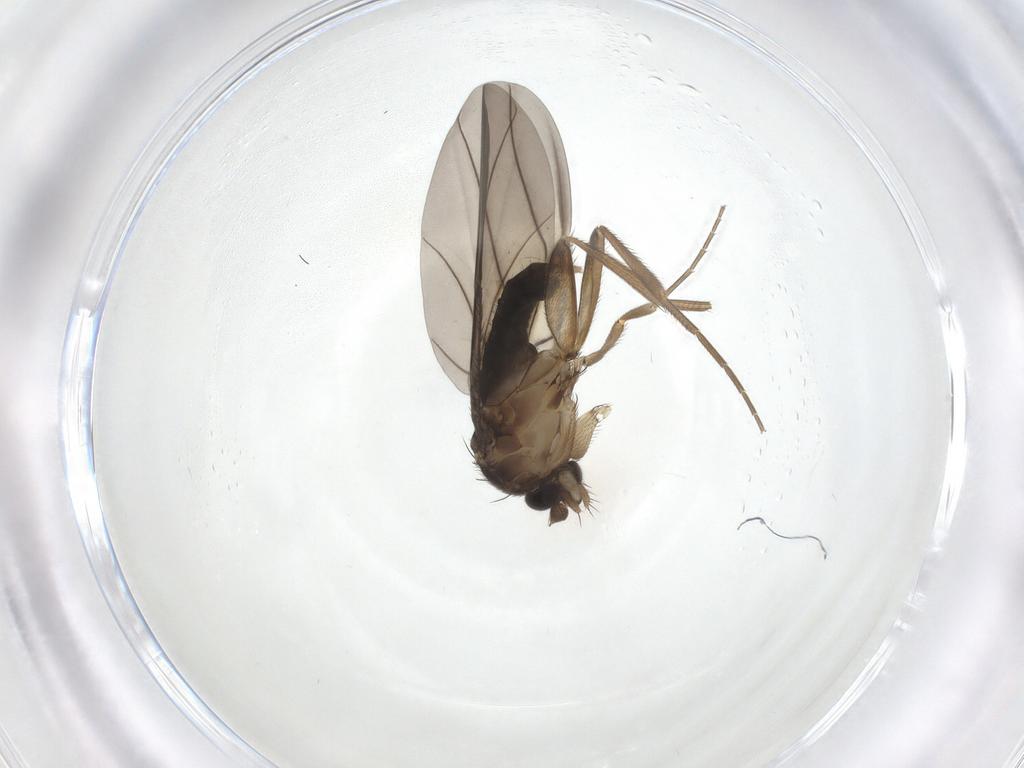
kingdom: Animalia
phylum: Arthropoda
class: Insecta
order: Diptera
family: Phoridae
